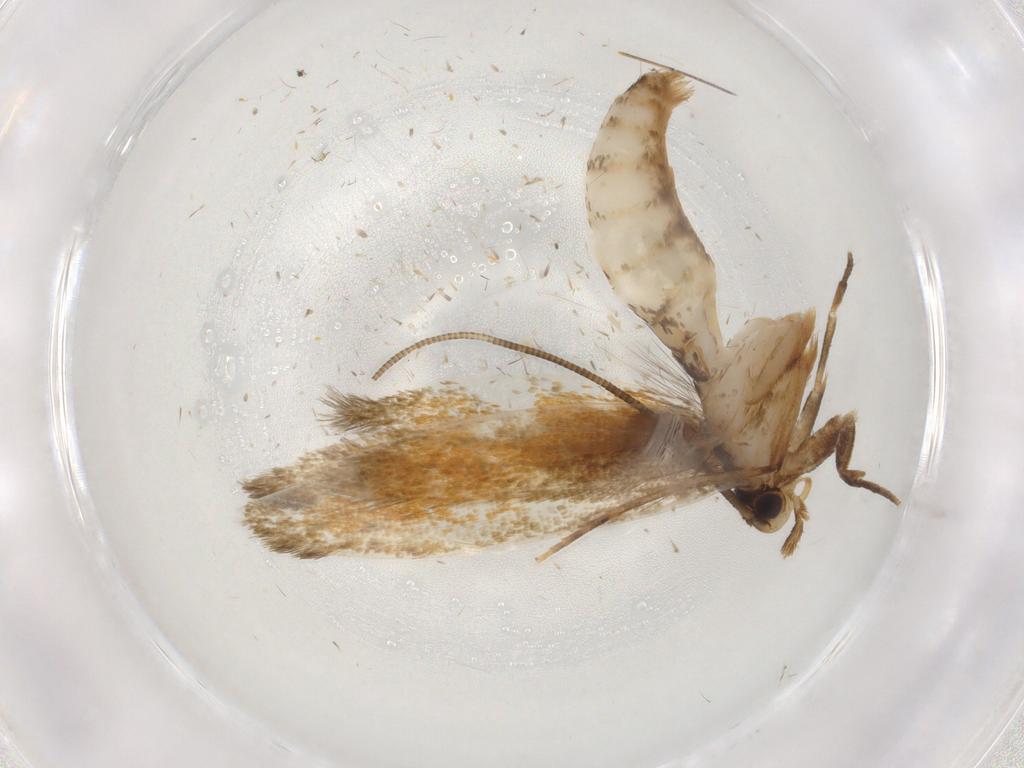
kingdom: Animalia
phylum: Arthropoda
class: Insecta
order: Lepidoptera
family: Tineidae
